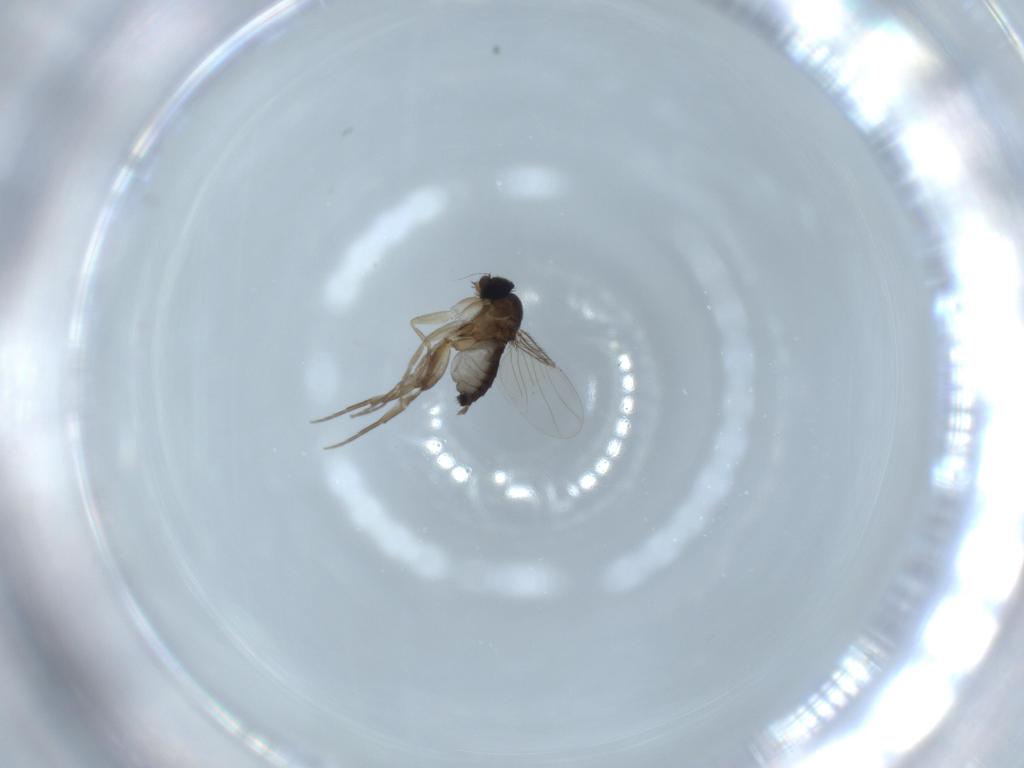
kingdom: Animalia
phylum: Arthropoda
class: Insecta
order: Diptera
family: Phoridae
